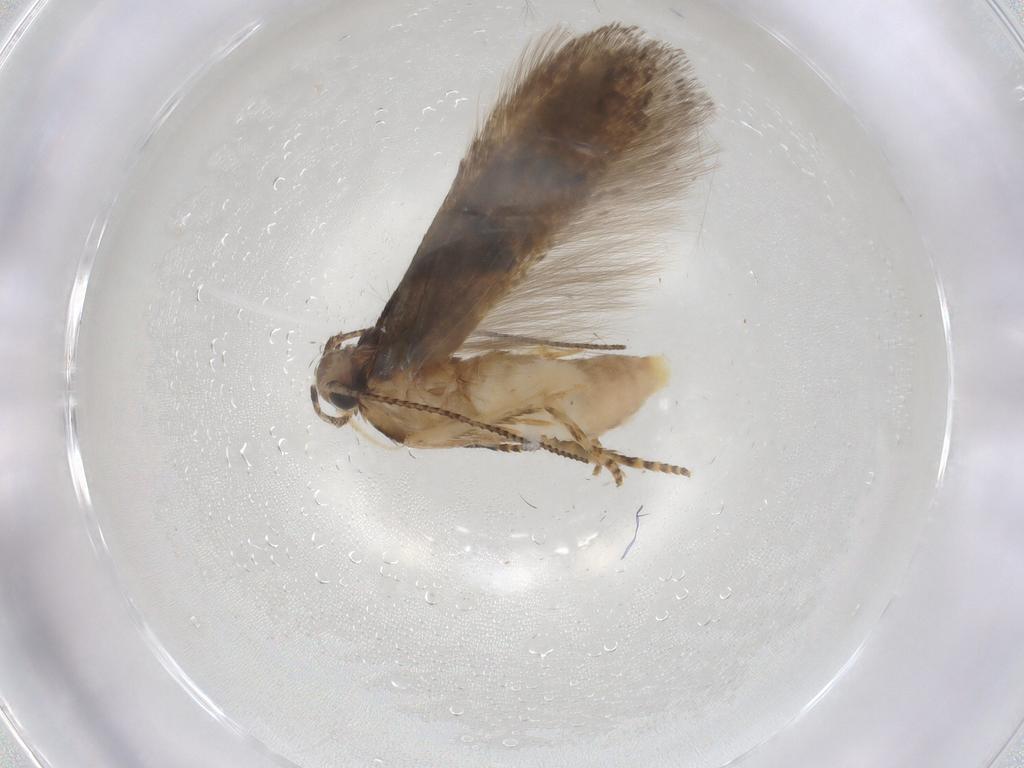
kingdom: Animalia
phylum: Arthropoda
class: Insecta
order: Lepidoptera
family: Gelechiidae
